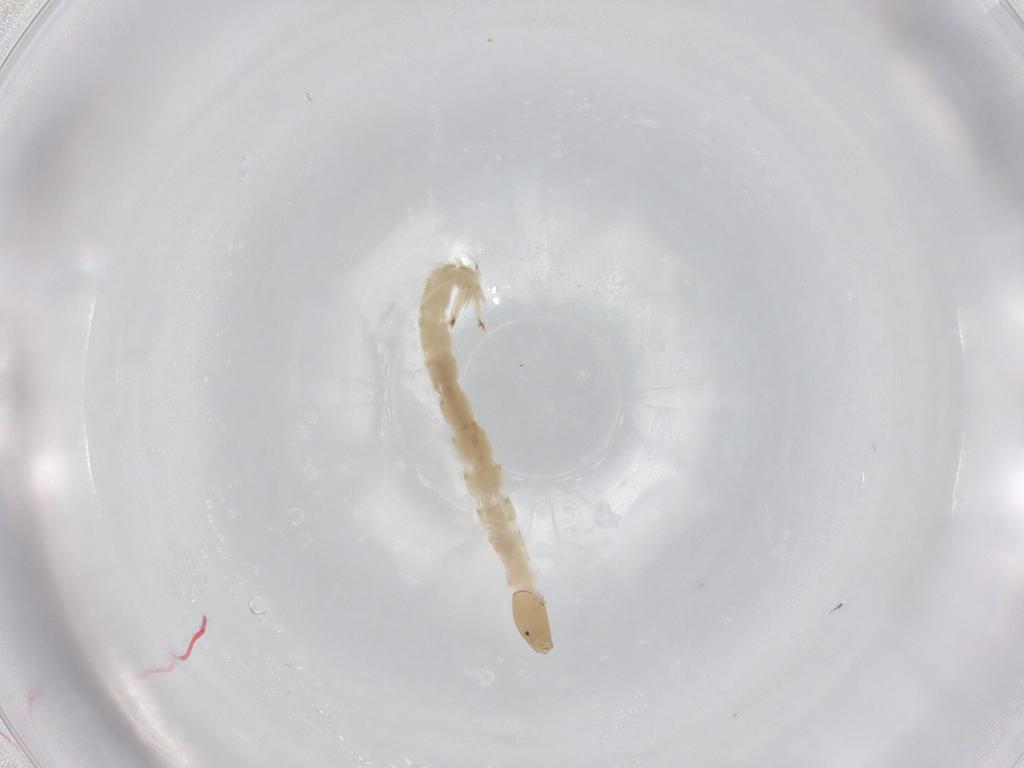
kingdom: Animalia
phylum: Arthropoda
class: Insecta
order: Diptera
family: Chironomidae
